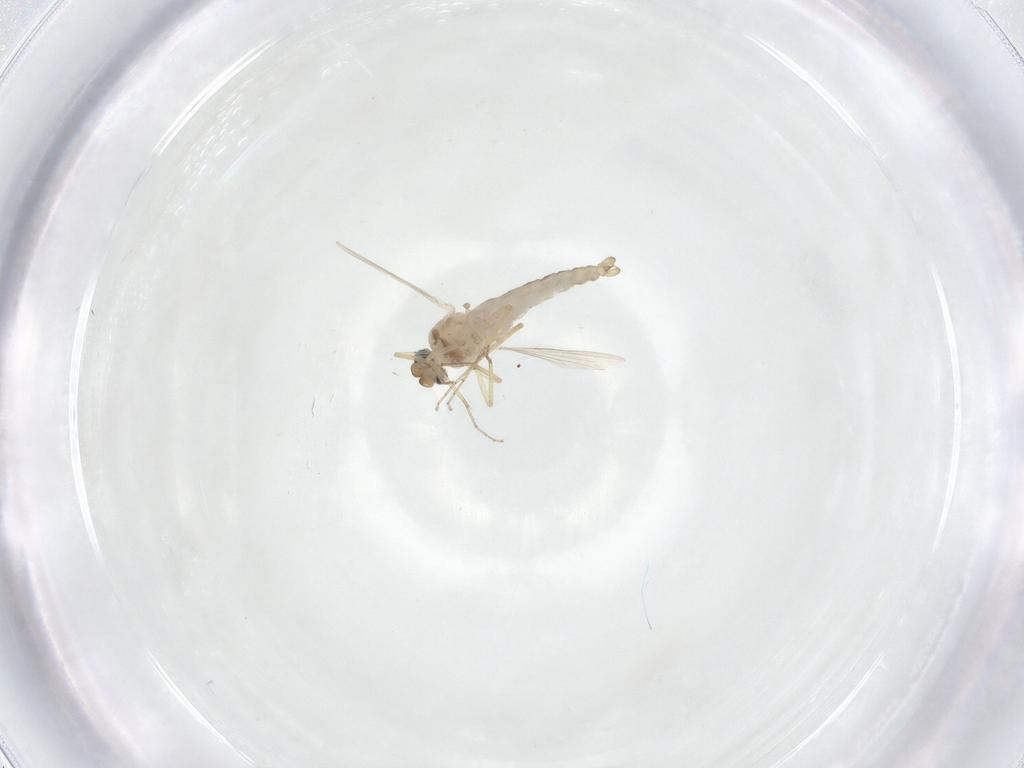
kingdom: Animalia
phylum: Arthropoda
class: Insecta
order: Diptera
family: Ceratopogonidae
